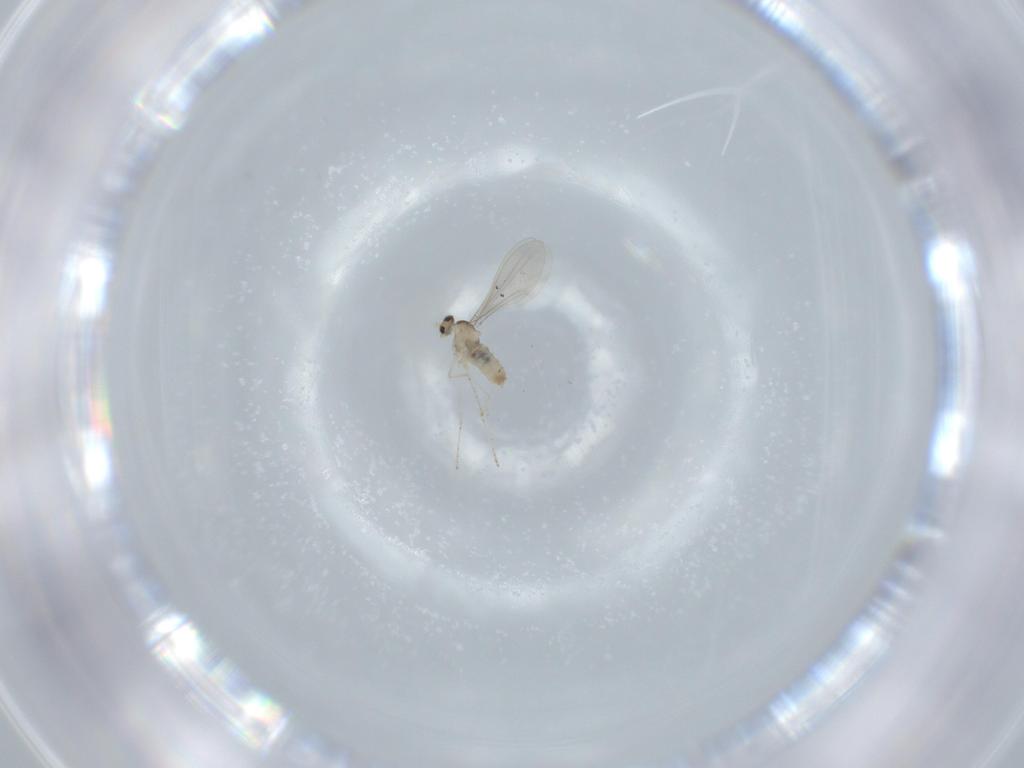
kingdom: Animalia
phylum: Arthropoda
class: Insecta
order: Diptera
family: Cecidomyiidae
